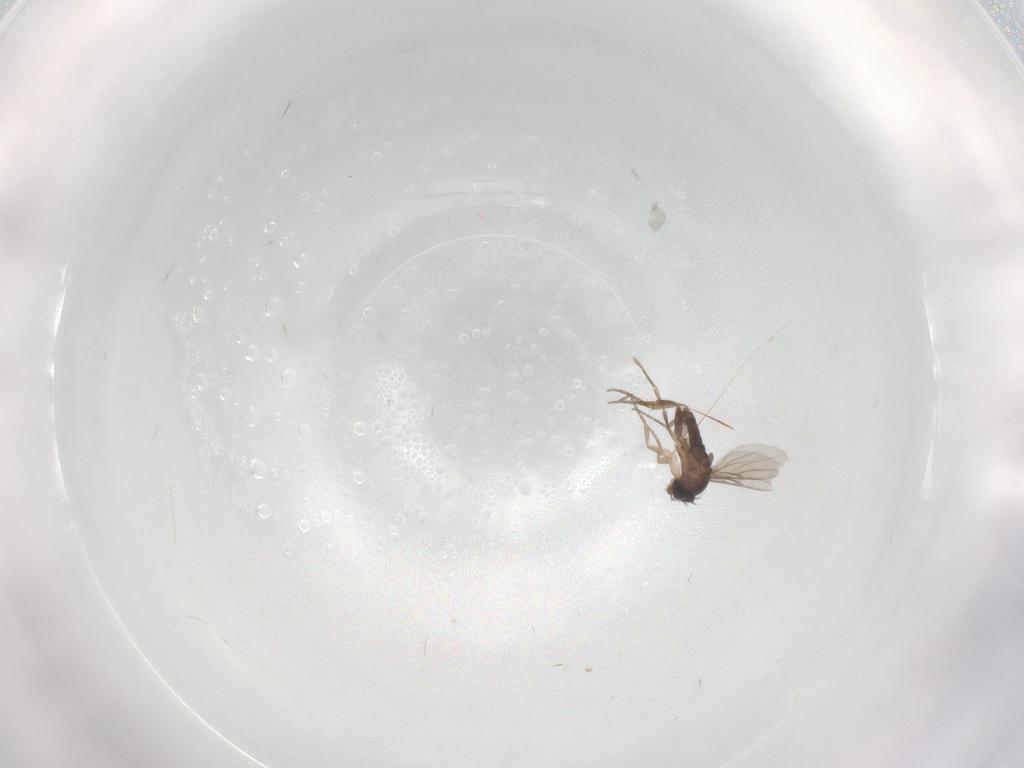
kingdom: Animalia
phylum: Arthropoda
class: Insecta
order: Diptera
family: Phoridae
